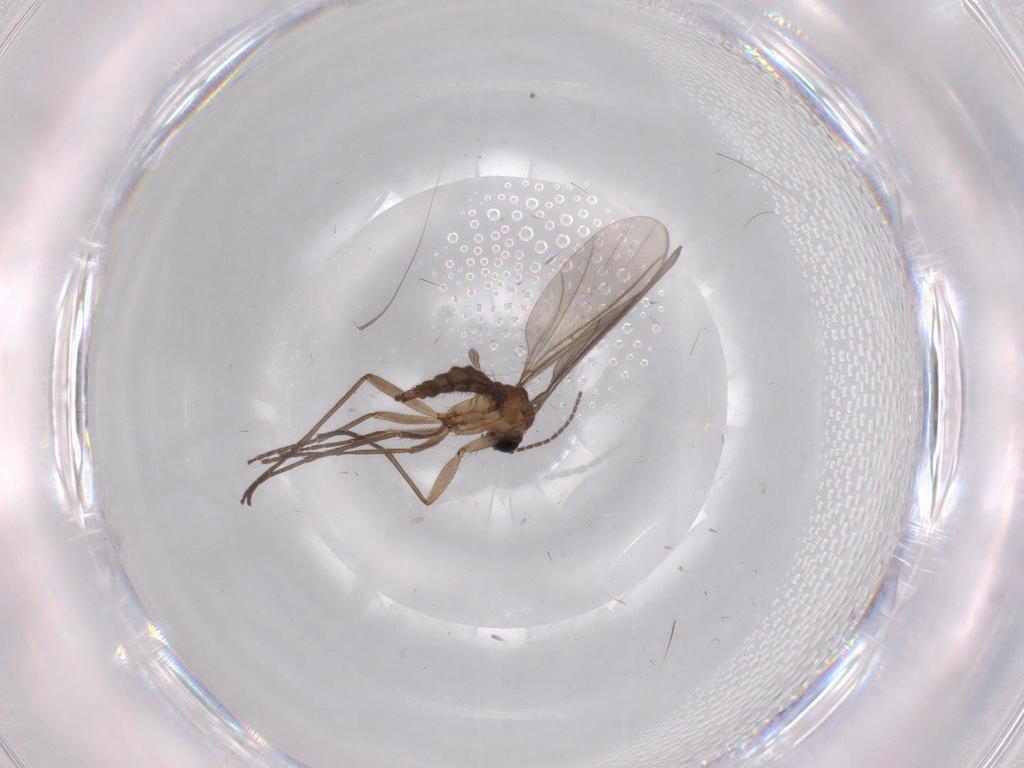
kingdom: Animalia
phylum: Arthropoda
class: Insecta
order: Diptera
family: Sciaridae
